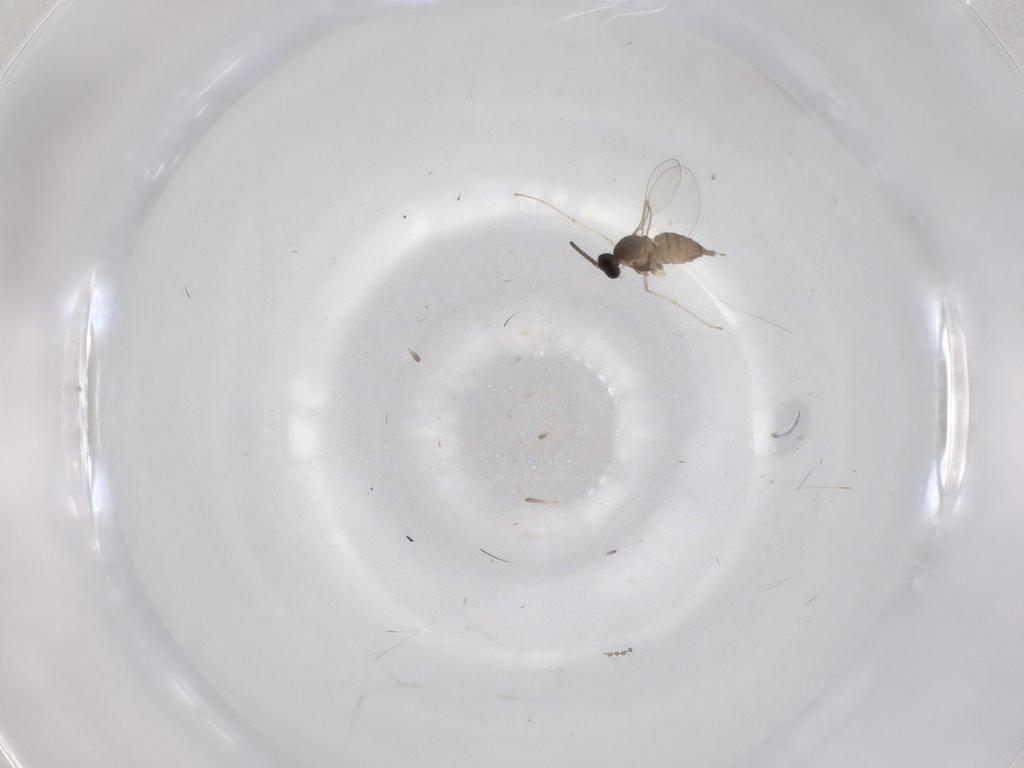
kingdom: Animalia
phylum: Arthropoda
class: Insecta
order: Diptera
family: Cecidomyiidae
